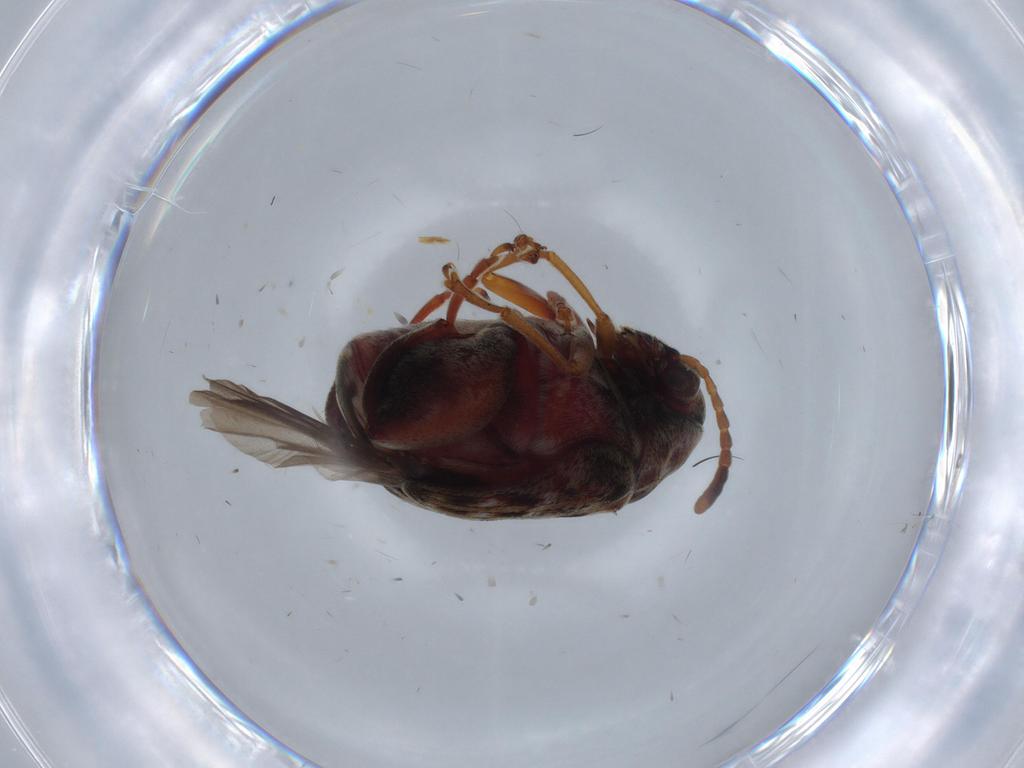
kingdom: Animalia
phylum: Arthropoda
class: Insecta
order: Coleoptera
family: Chrysomelidae
